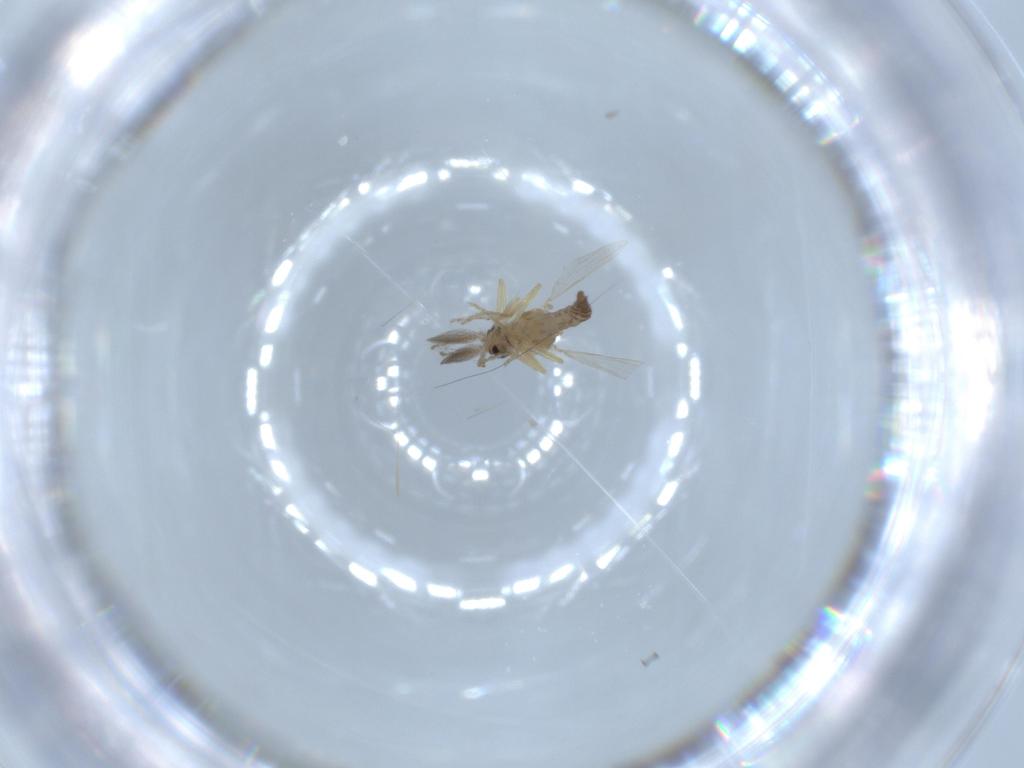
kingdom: Animalia
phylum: Arthropoda
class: Insecta
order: Diptera
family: Ceratopogonidae
